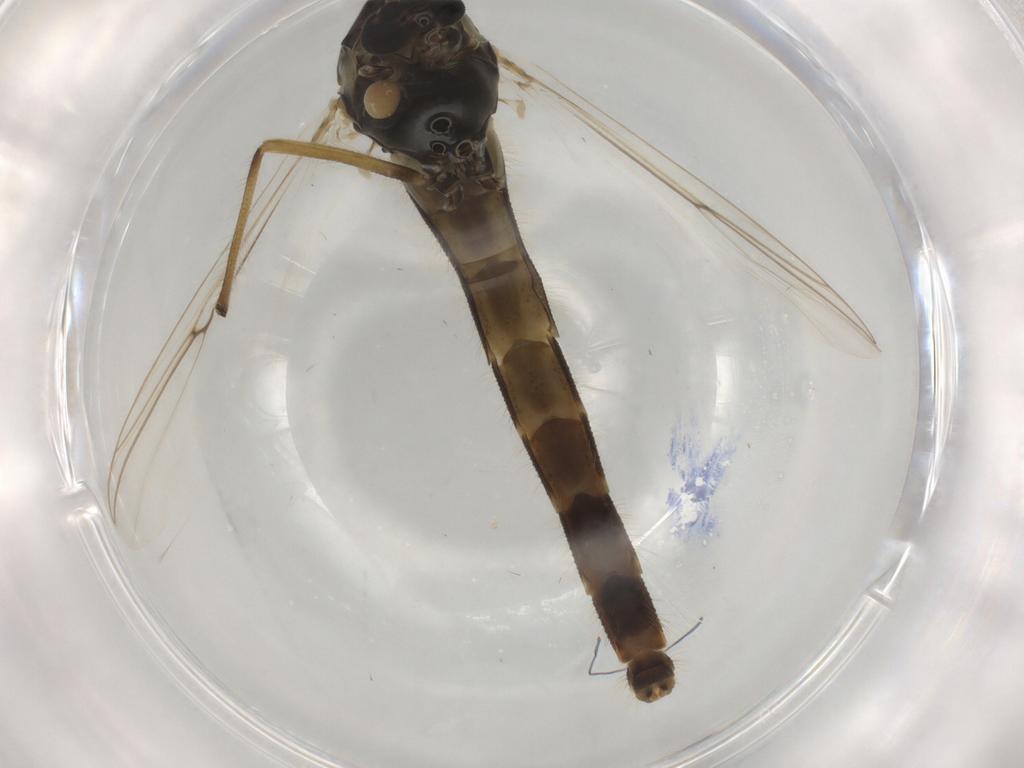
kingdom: Animalia
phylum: Arthropoda
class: Insecta
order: Diptera
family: Chironomidae
